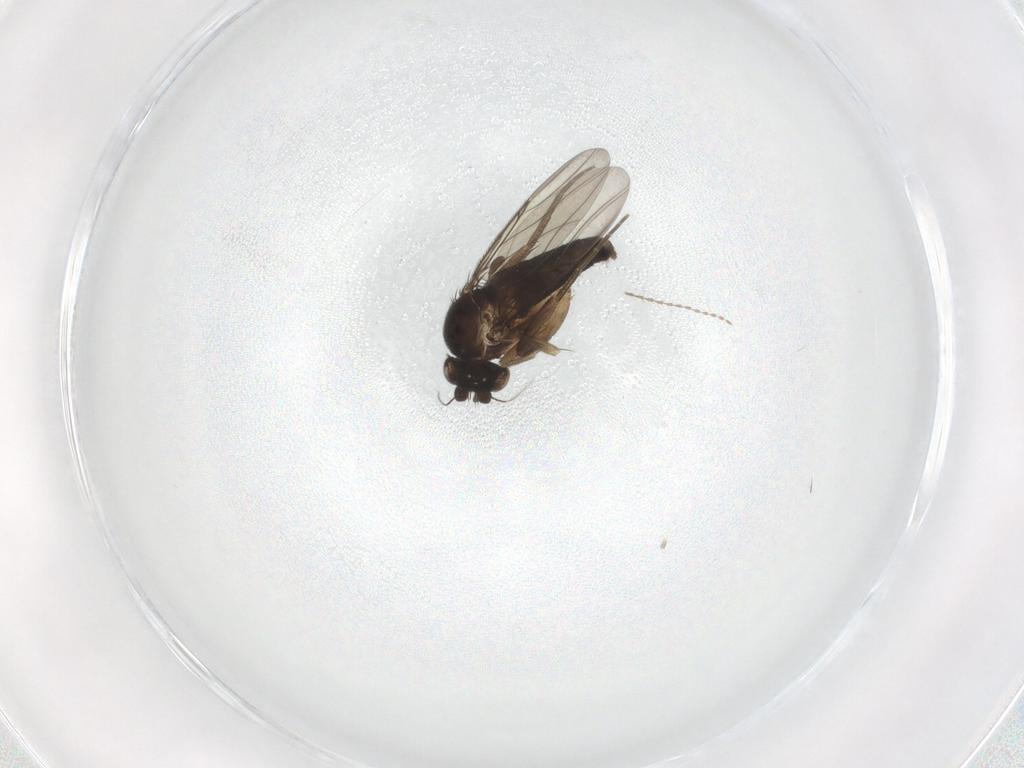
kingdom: Animalia
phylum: Arthropoda
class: Insecta
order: Diptera
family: Phoridae
